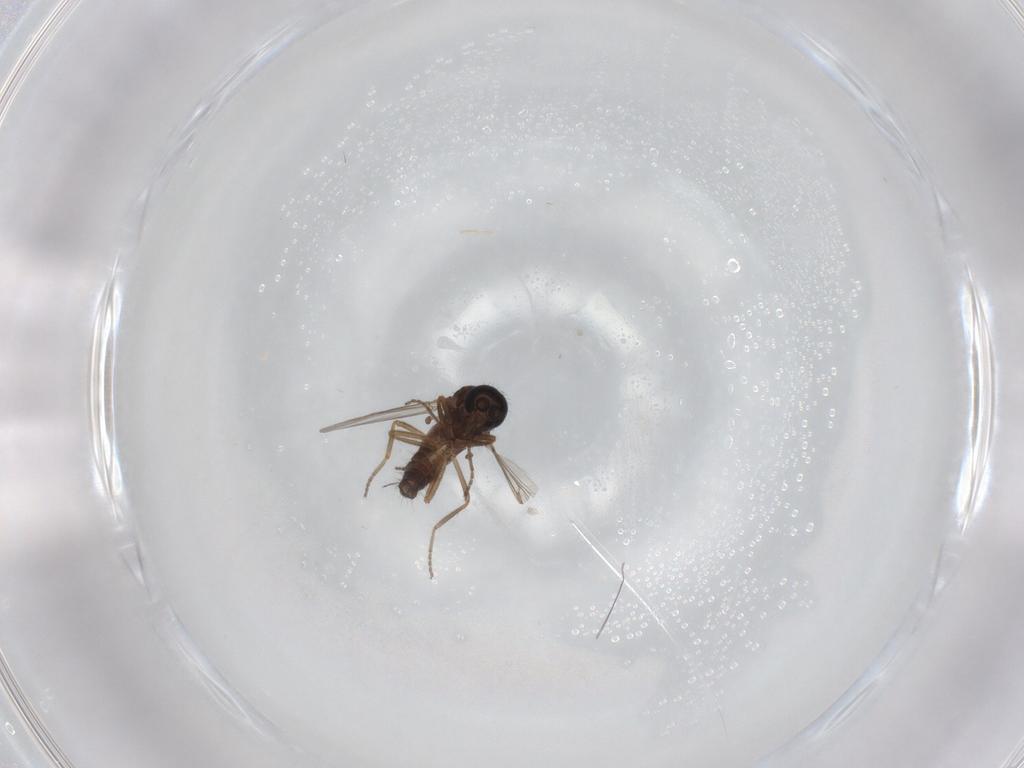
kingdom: Animalia
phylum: Arthropoda
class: Insecta
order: Diptera
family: Ceratopogonidae
